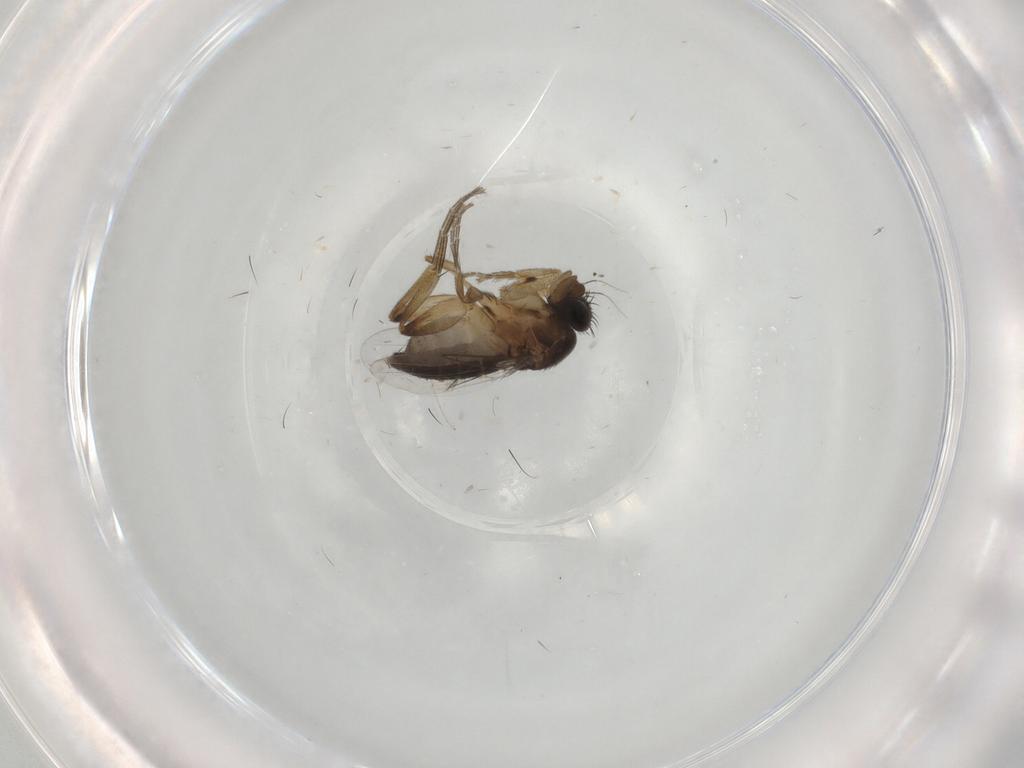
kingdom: Animalia
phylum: Arthropoda
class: Insecta
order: Diptera
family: Phoridae
